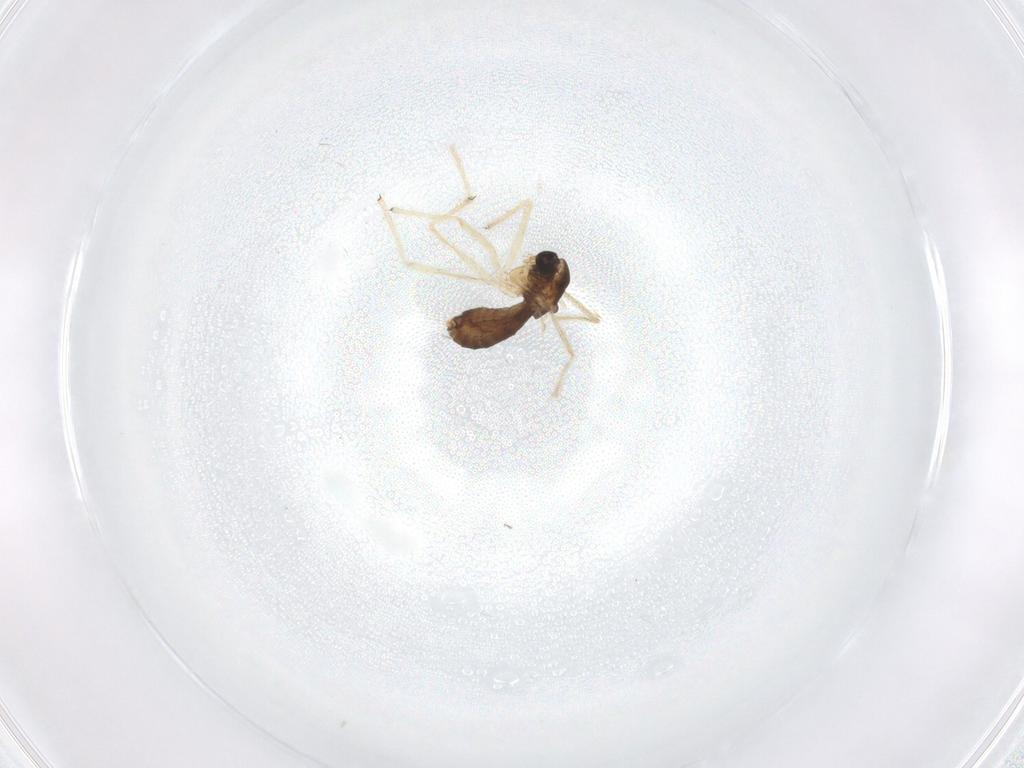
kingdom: Animalia
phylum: Arthropoda
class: Insecta
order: Diptera
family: Chironomidae
